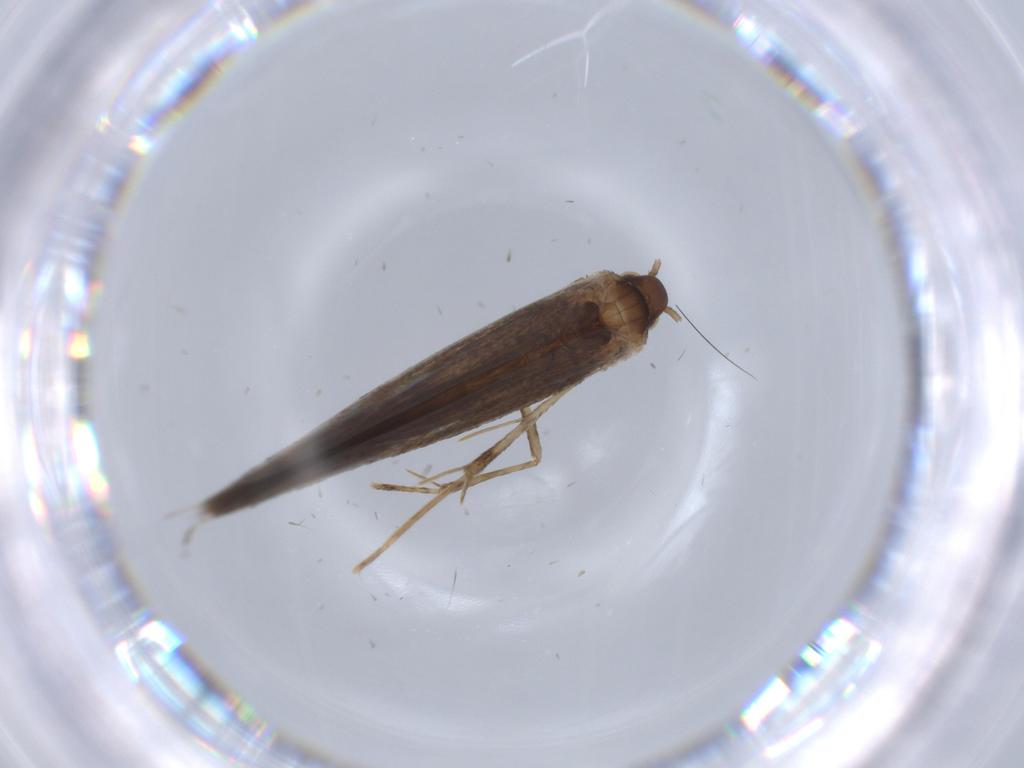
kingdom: Animalia
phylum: Arthropoda
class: Insecta
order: Lepidoptera
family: Gracillariidae
